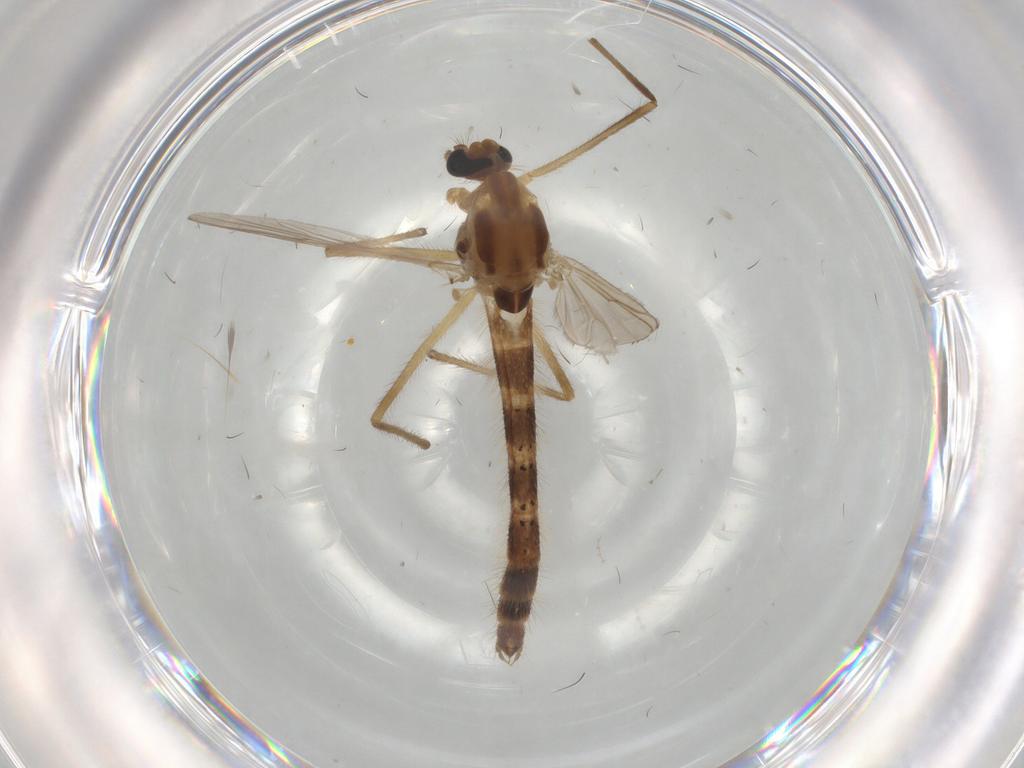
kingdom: Animalia
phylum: Arthropoda
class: Insecta
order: Diptera
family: Chironomidae
